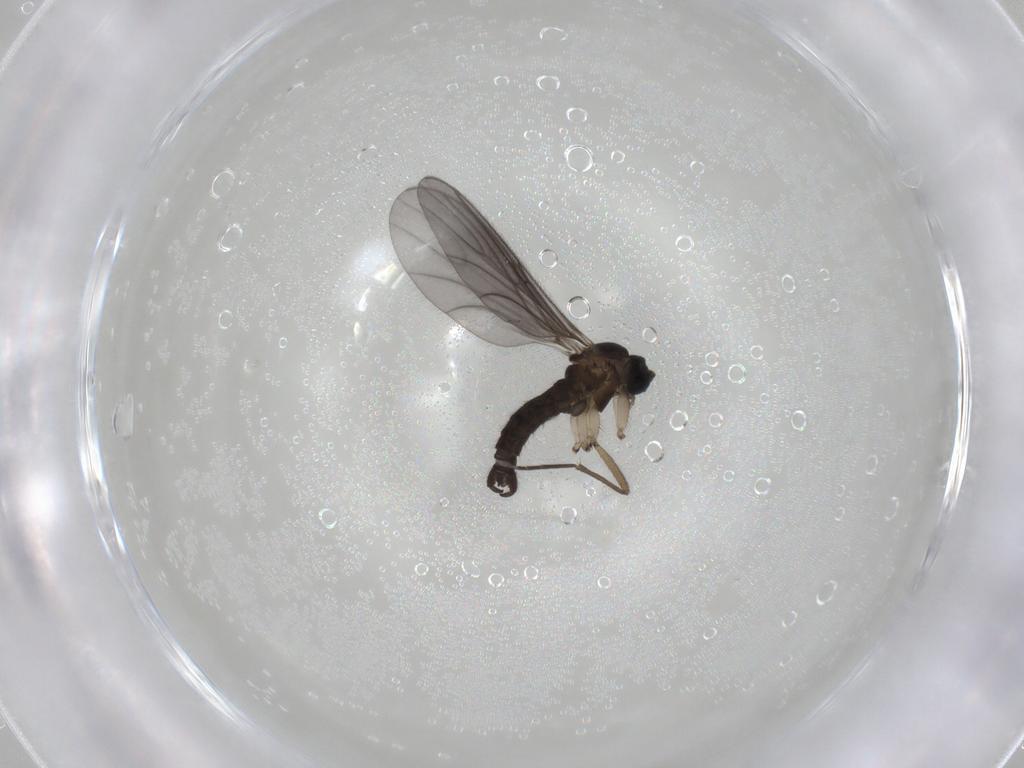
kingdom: Animalia
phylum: Arthropoda
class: Insecta
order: Diptera
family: Sciaridae
